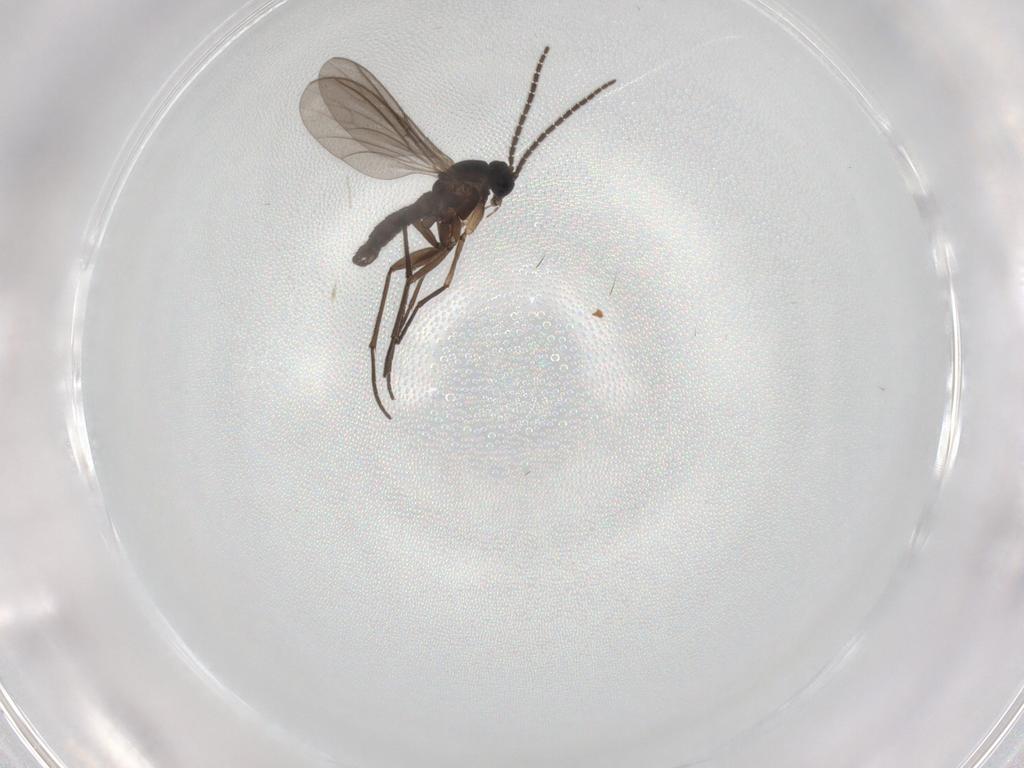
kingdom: Animalia
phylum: Arthropoda
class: Insecta
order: Diptera
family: Sciaridae
